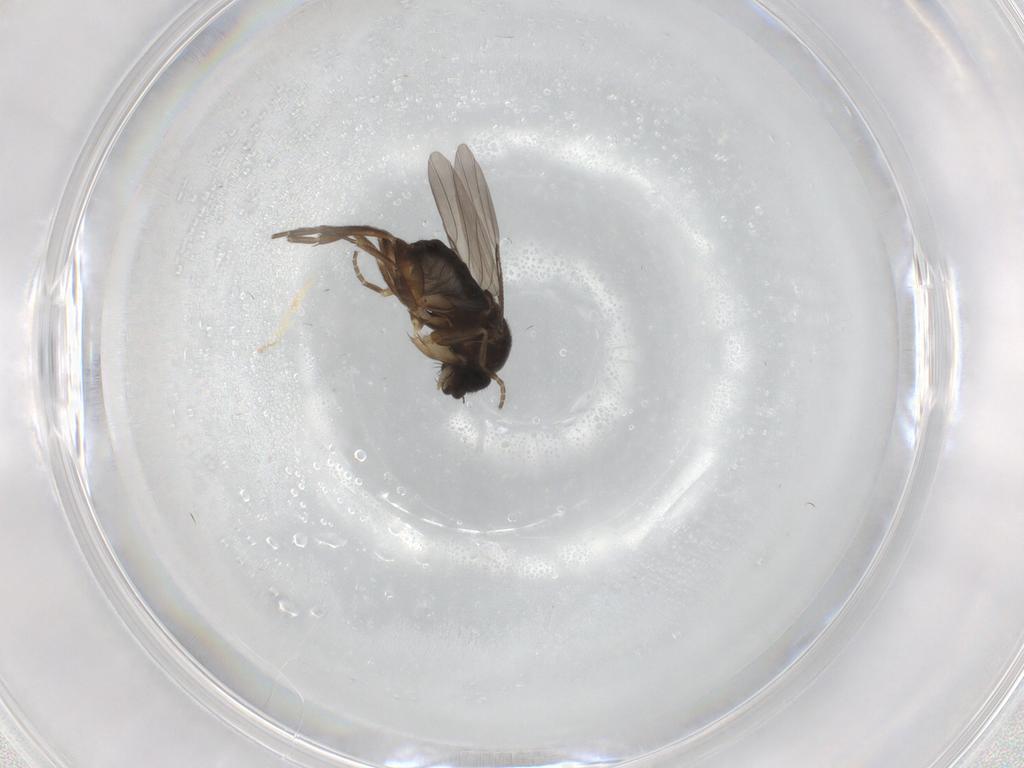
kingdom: Animalia
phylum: Arthropoda
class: Insecta
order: Diptera
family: Phoridae
